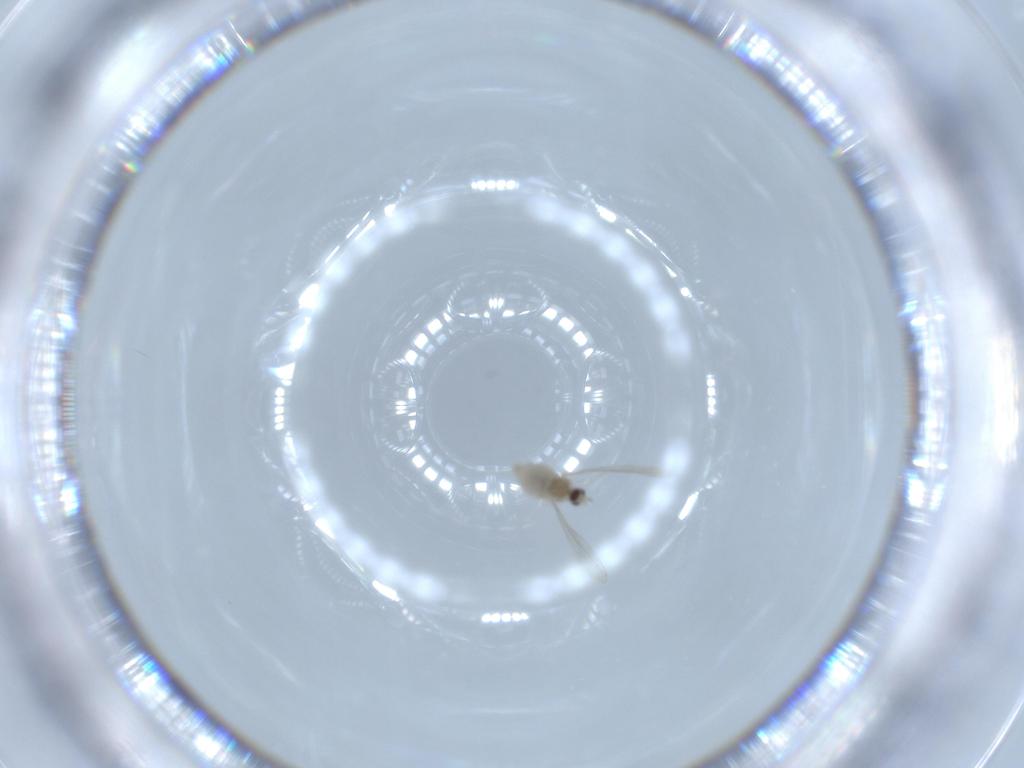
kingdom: Animalia
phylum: Arthropoda
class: Insecta
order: Diptera
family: Cecidomyiidae
